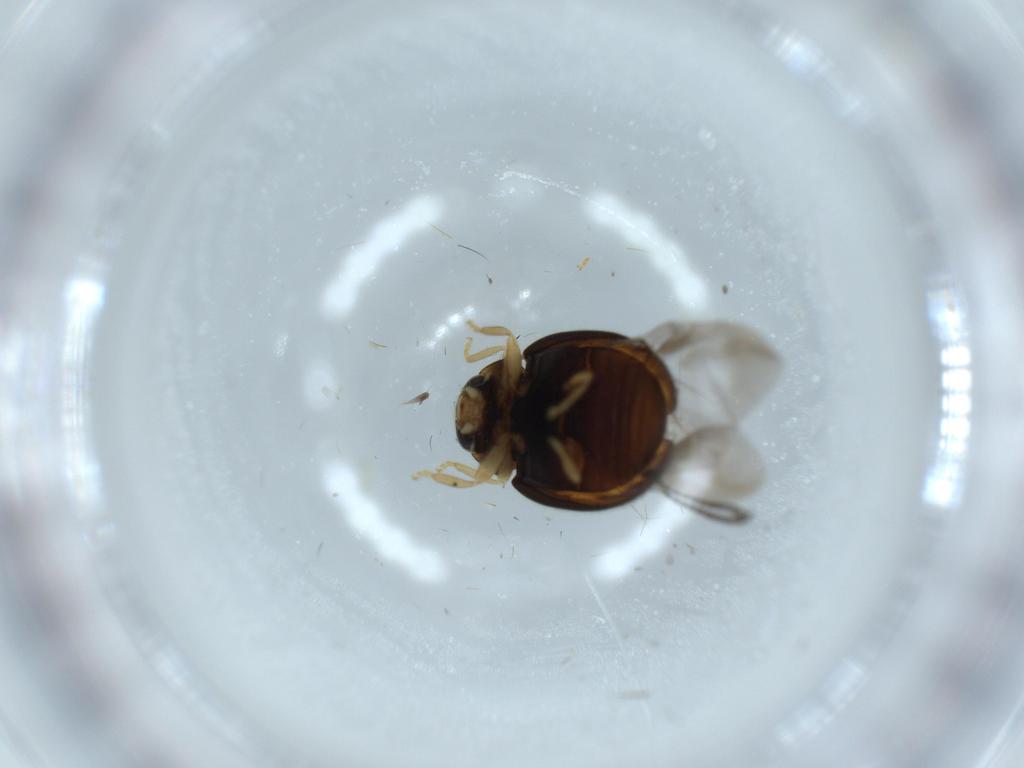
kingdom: Animalia
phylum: Arthropoda
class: Insecta
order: Coleoptera
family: Coccinellidae
